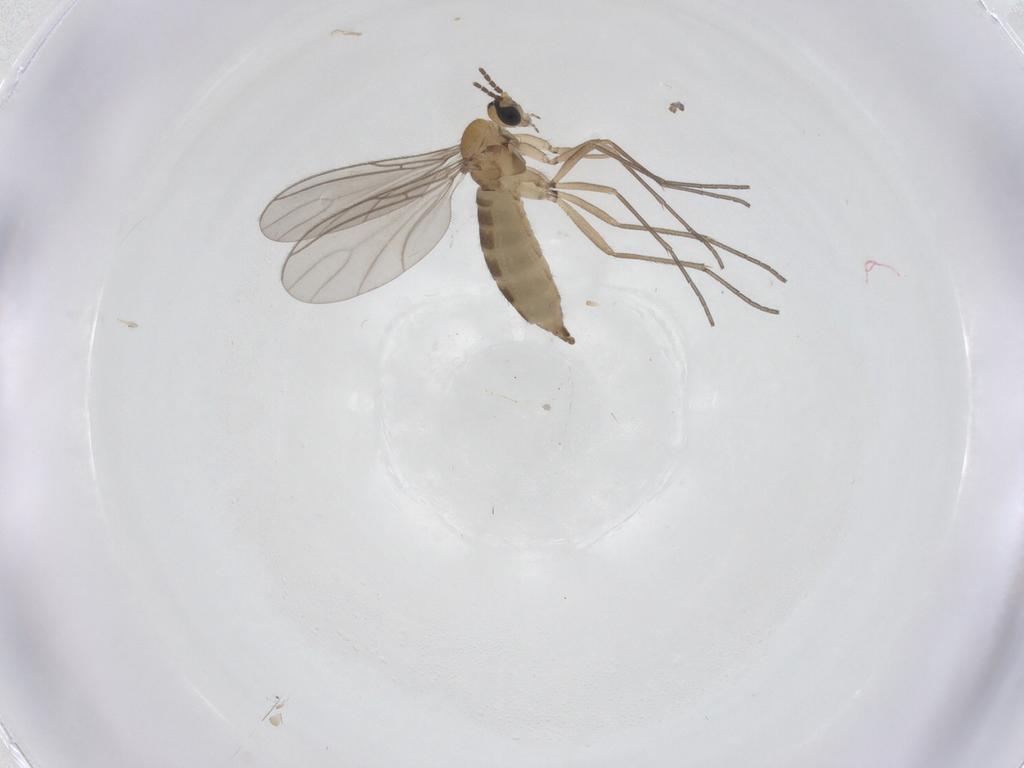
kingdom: Animalia
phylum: Arthropoda
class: Insecta
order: Diptera
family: Sciaridae
